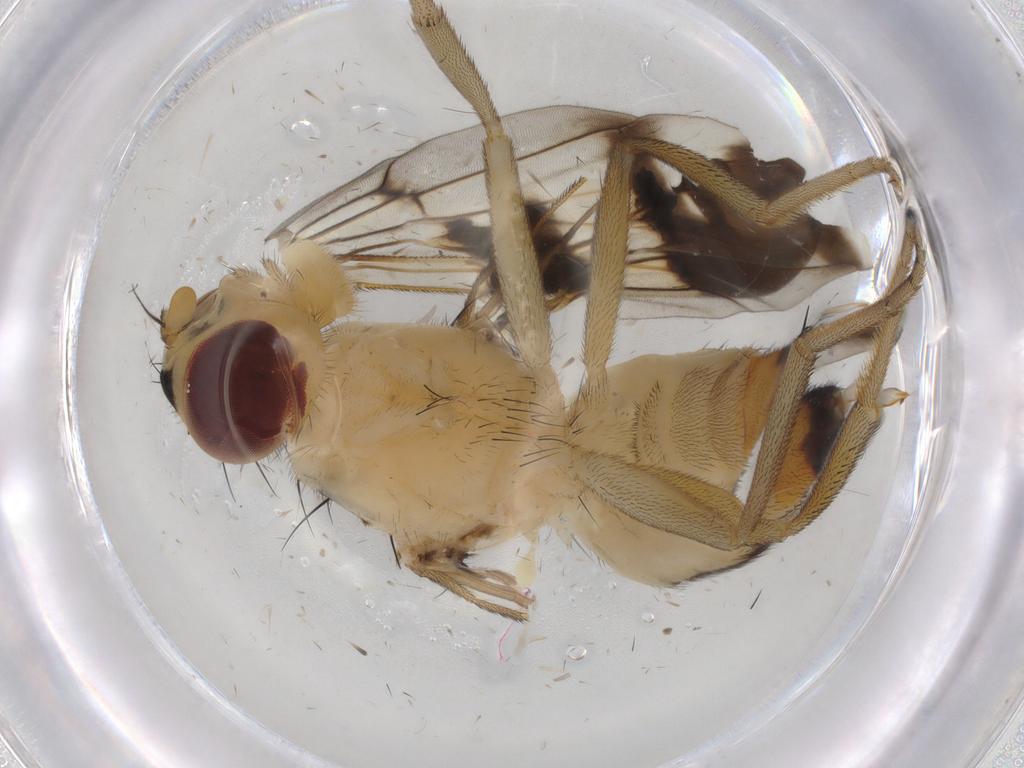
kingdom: Animalia
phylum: Arthropoda
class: Insecta
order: Diptera
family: Tephritidae
